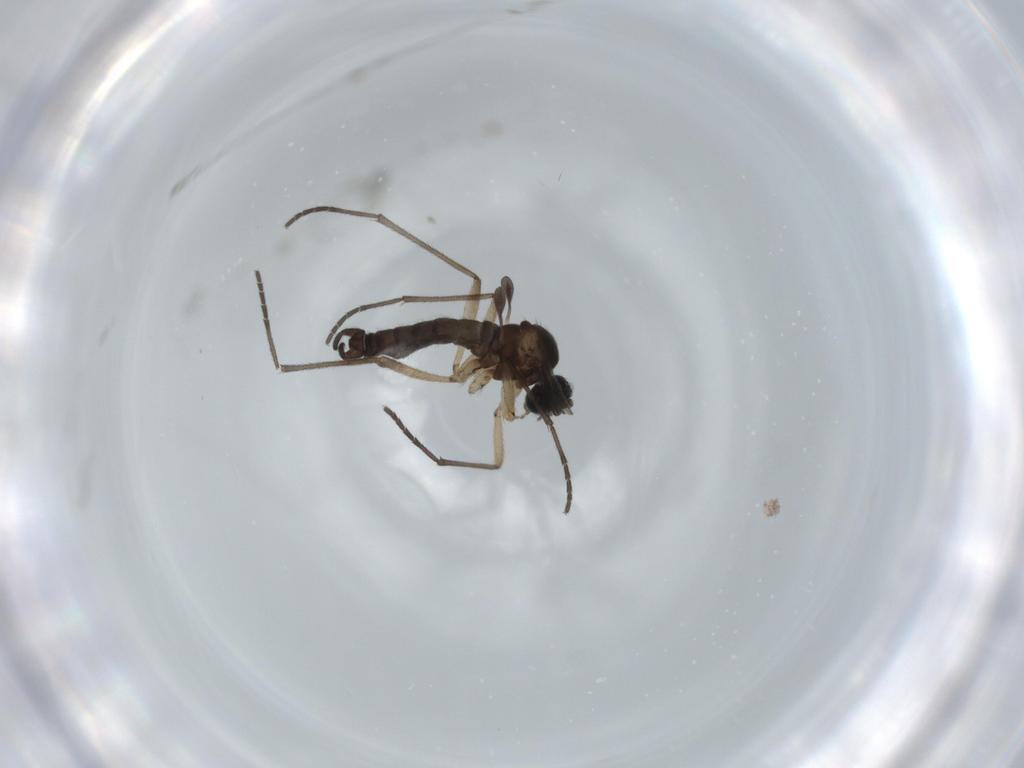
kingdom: Animalia
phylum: Arthropoda
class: Insecta
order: Diptera
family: Sciaridae
